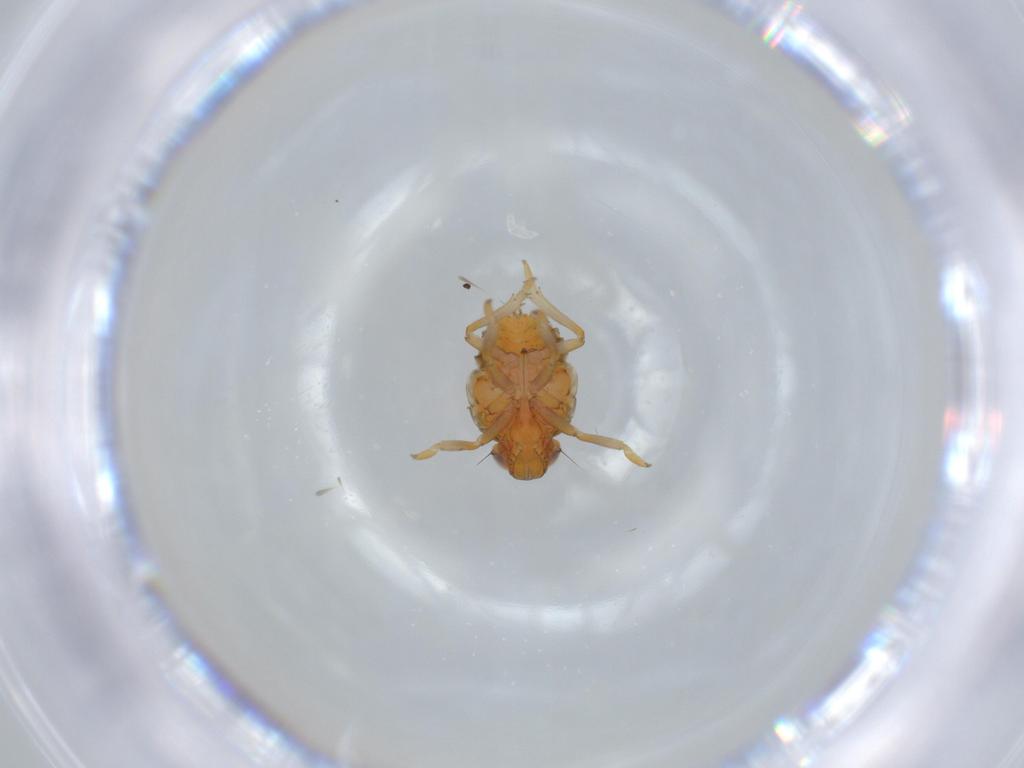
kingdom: Animalia
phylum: Arthropoda
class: Insecta
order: Hemiptera
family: Issidae
